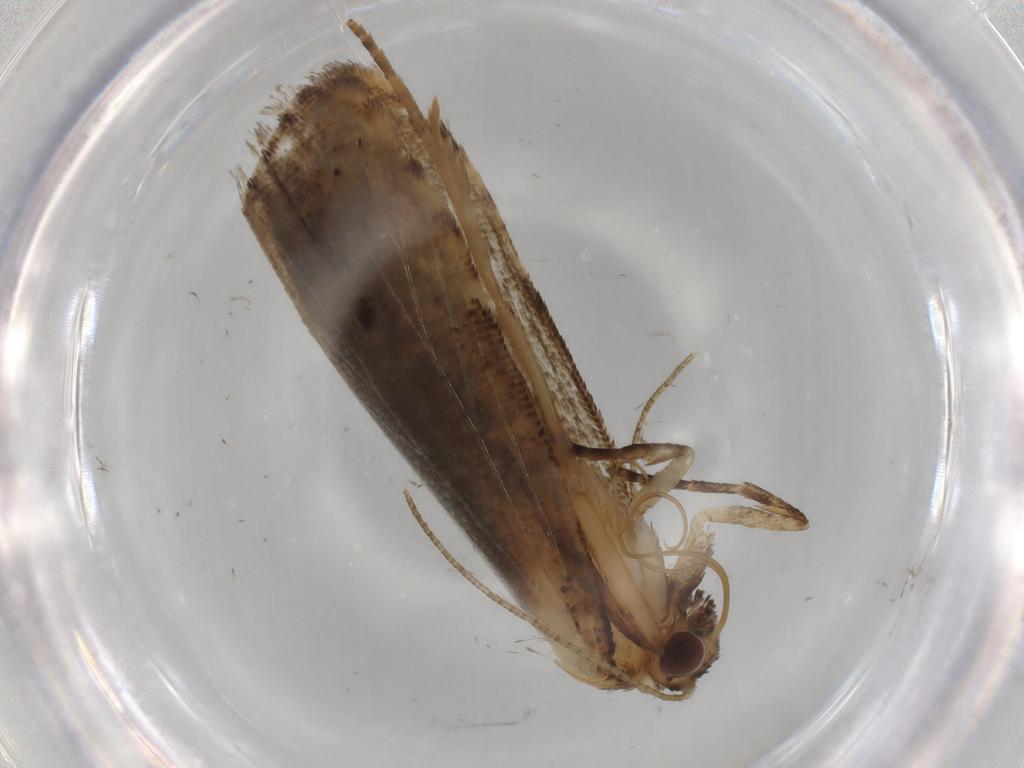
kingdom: Animalia
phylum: Arthropoda
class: Insecta
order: Lepidoptera
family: Erebidae
